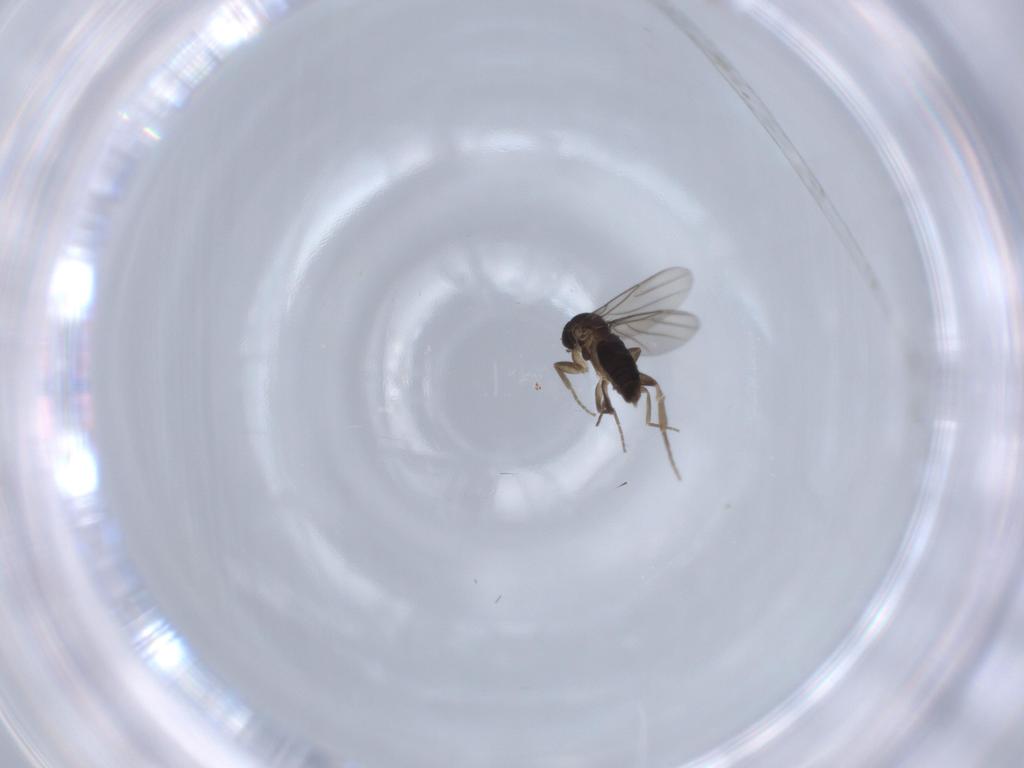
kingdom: Animalia
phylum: Arthropoda
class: Insecta
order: Diptera
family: Phoridae
